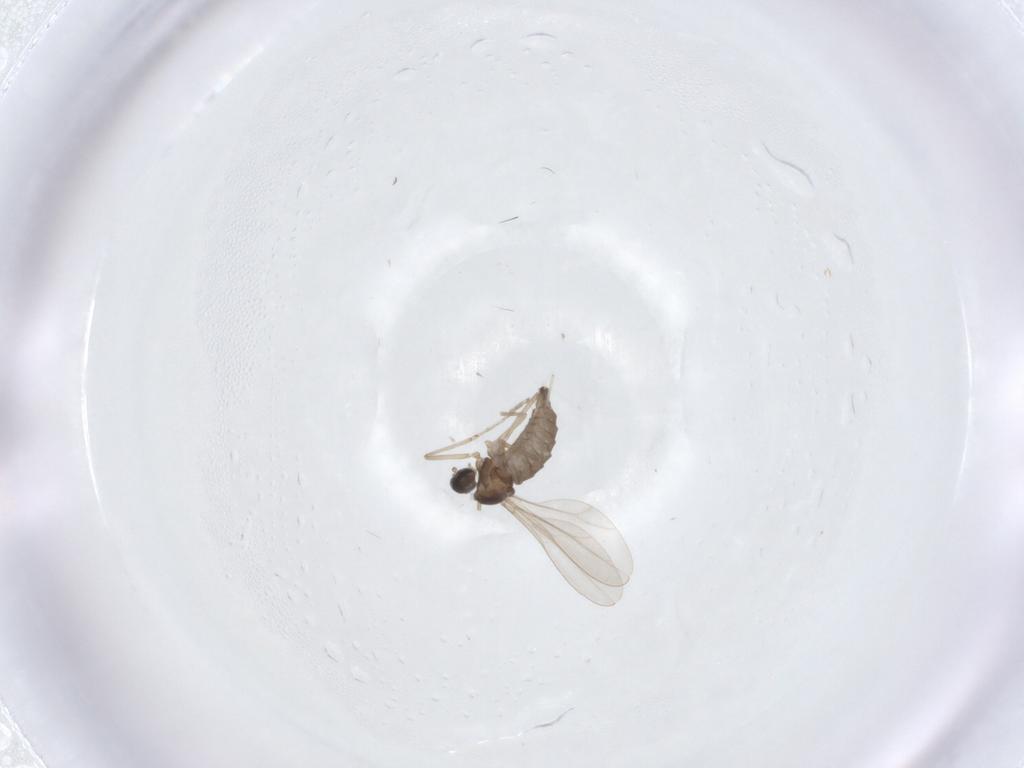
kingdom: Animalia
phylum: Arthropoda
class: Insecta
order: Diptera
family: Cecidomyiidae
